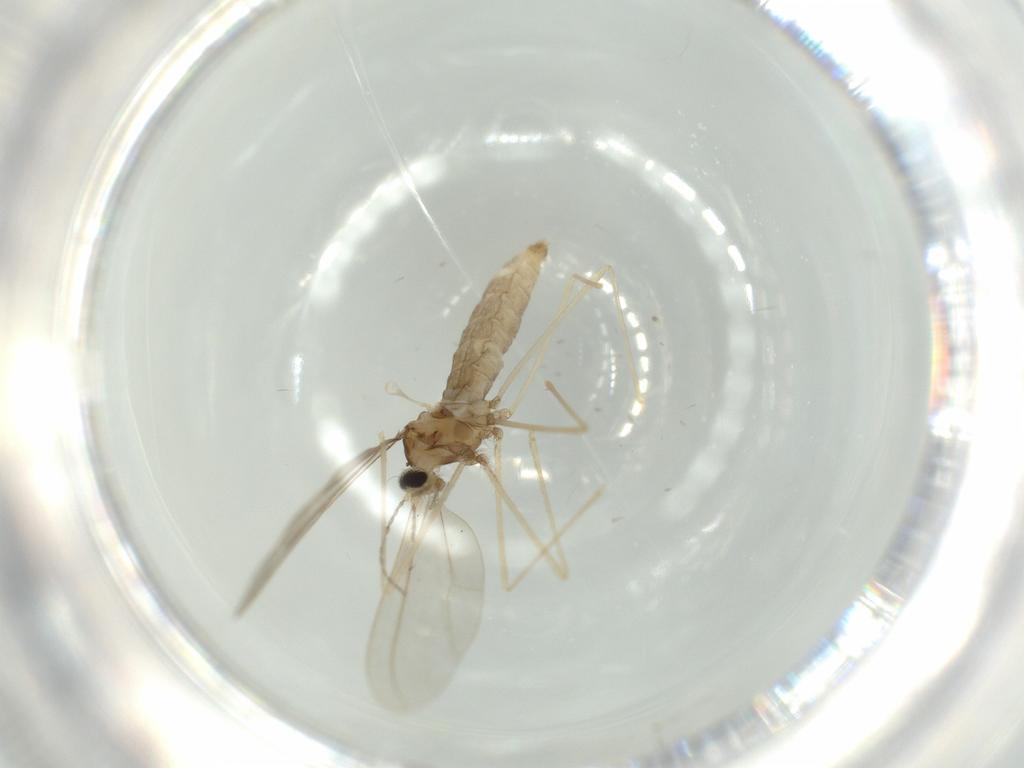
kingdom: Animalia
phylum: Arthropoda
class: Insecta
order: Diptera
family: Cecidomyiidae
